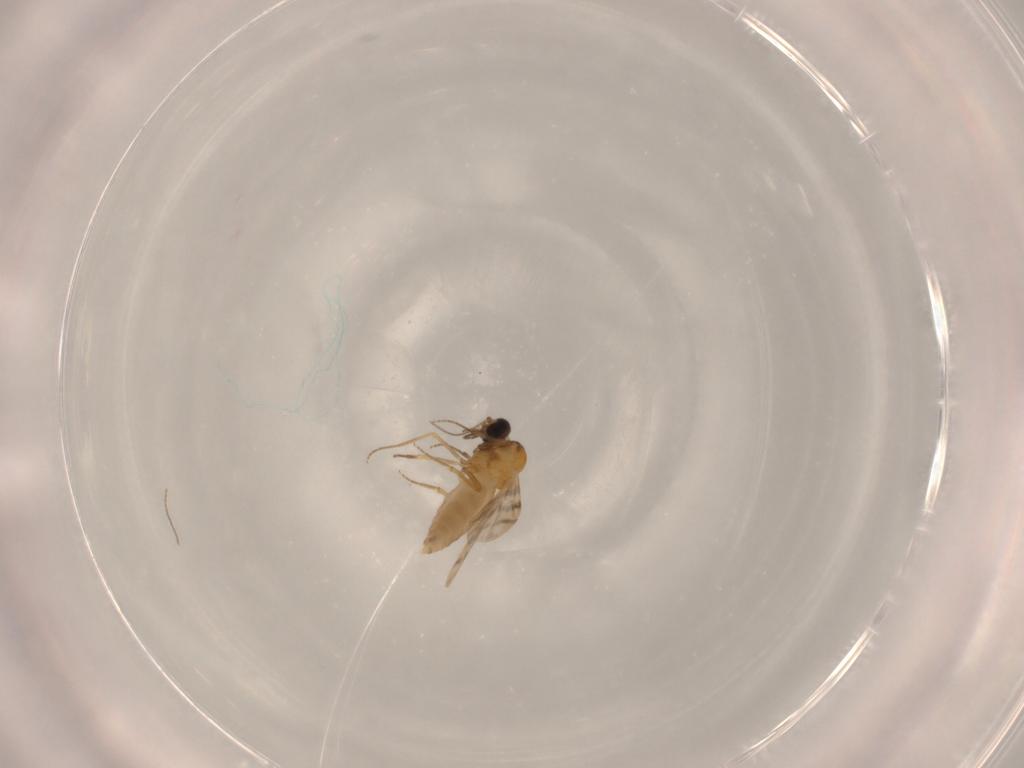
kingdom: Animalia
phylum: Arthropoda
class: Insecta
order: Diptera
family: Ceratopogonidae
